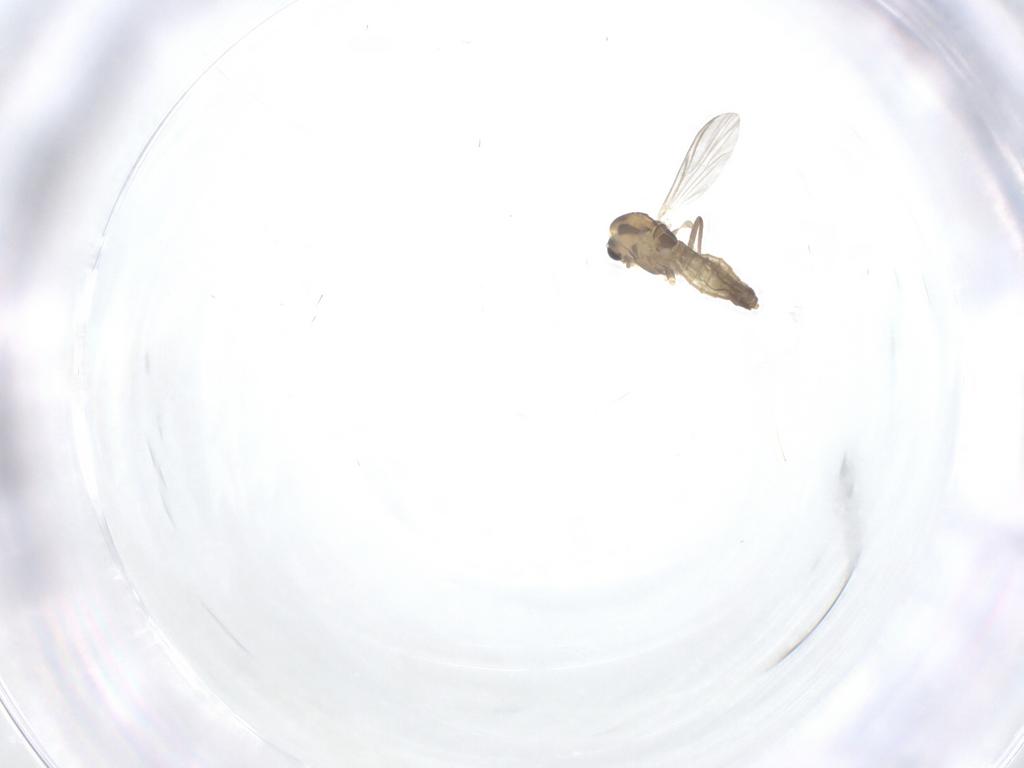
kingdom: Animalia
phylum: Arthropoda
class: Insecta
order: Diptera
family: Chironomidae
